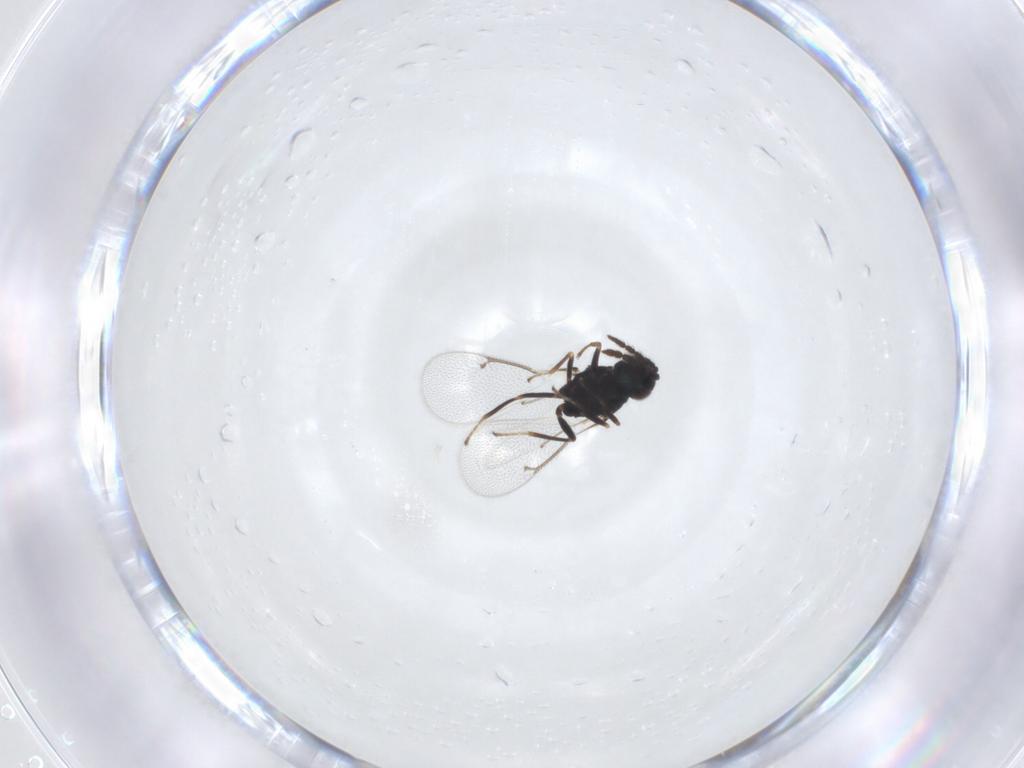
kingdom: Animalia
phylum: Arthropoda
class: Insecta
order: Hymenoptera
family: Eulophidae
